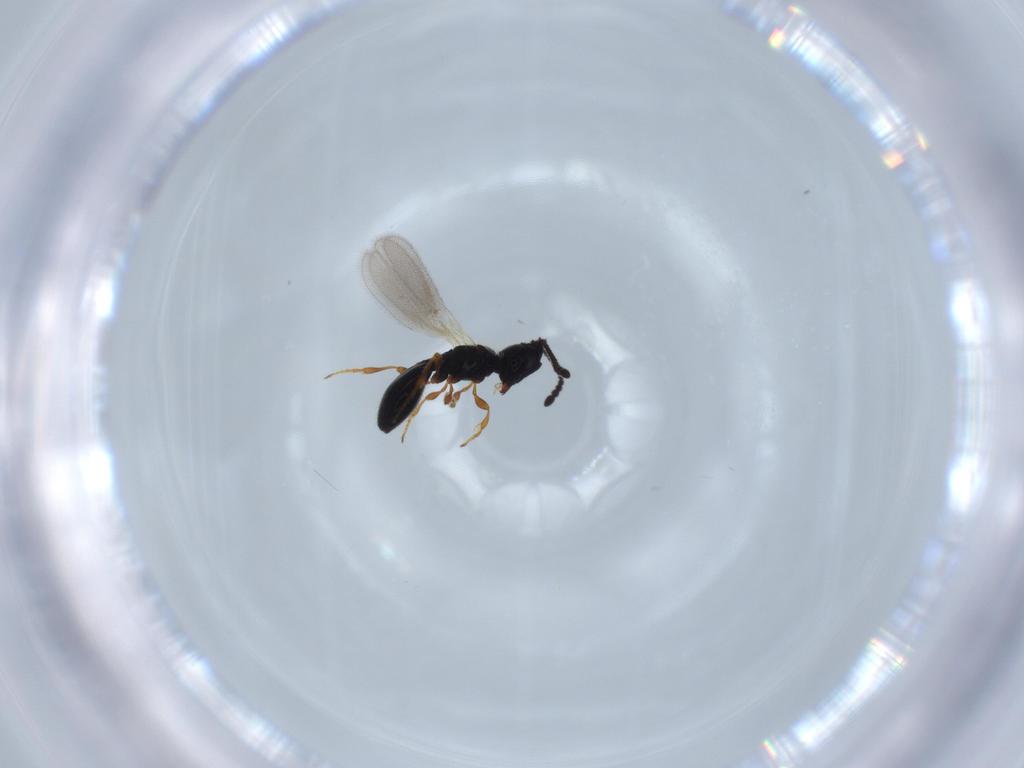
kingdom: Animalia
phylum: Arthropoda
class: Insecta
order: Hymenoptera
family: Diapriidae
